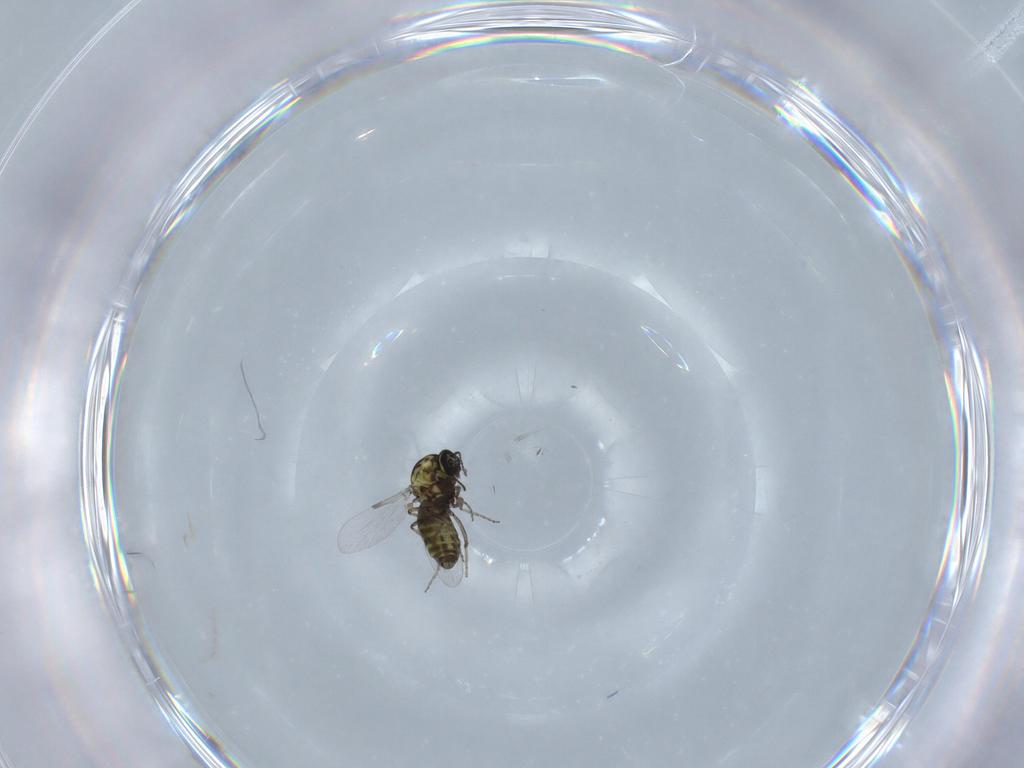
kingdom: Animalia
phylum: Arthropoda
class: Insecta
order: Diptera
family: Ceratopogonidae
